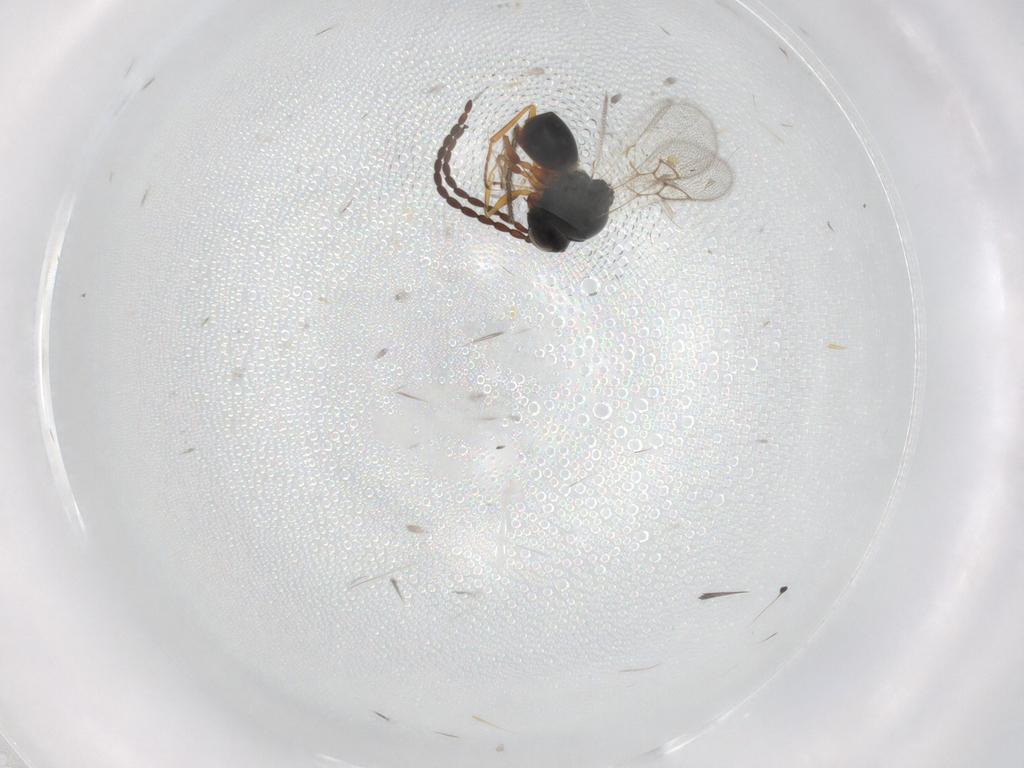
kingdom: Animalia
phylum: Arthropoda
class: Insecta
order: Hymenoptera
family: Figitidae
